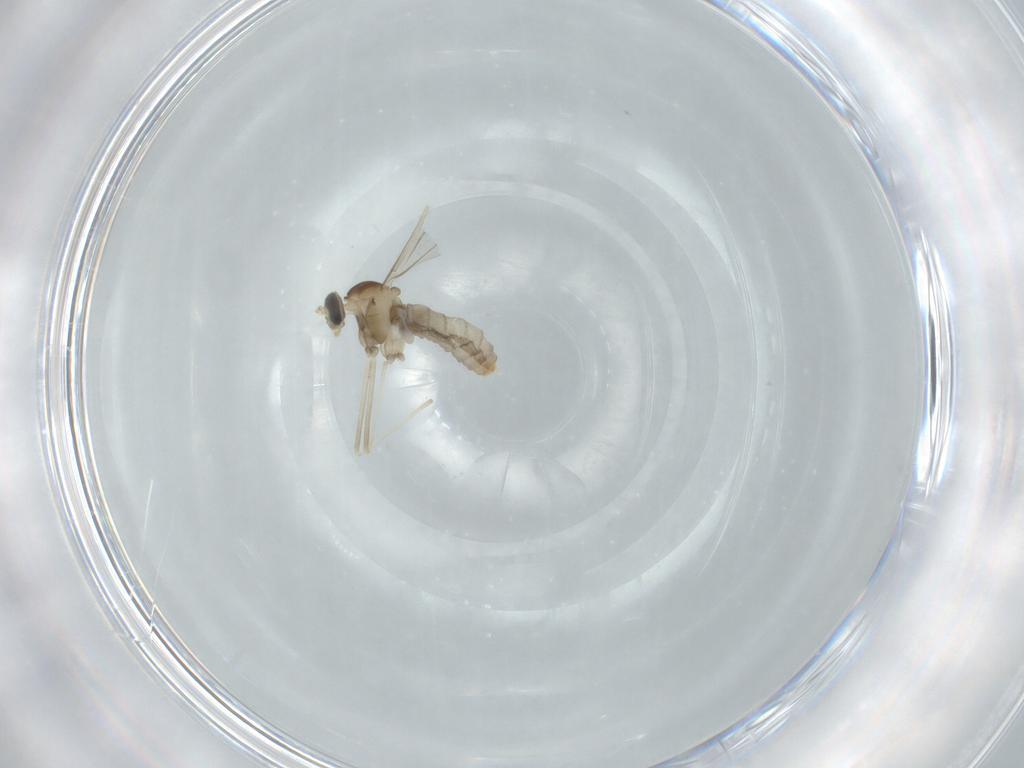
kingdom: Animalia
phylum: Arthropoda
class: Insecta
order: Diptera
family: Cecidomyiidae
